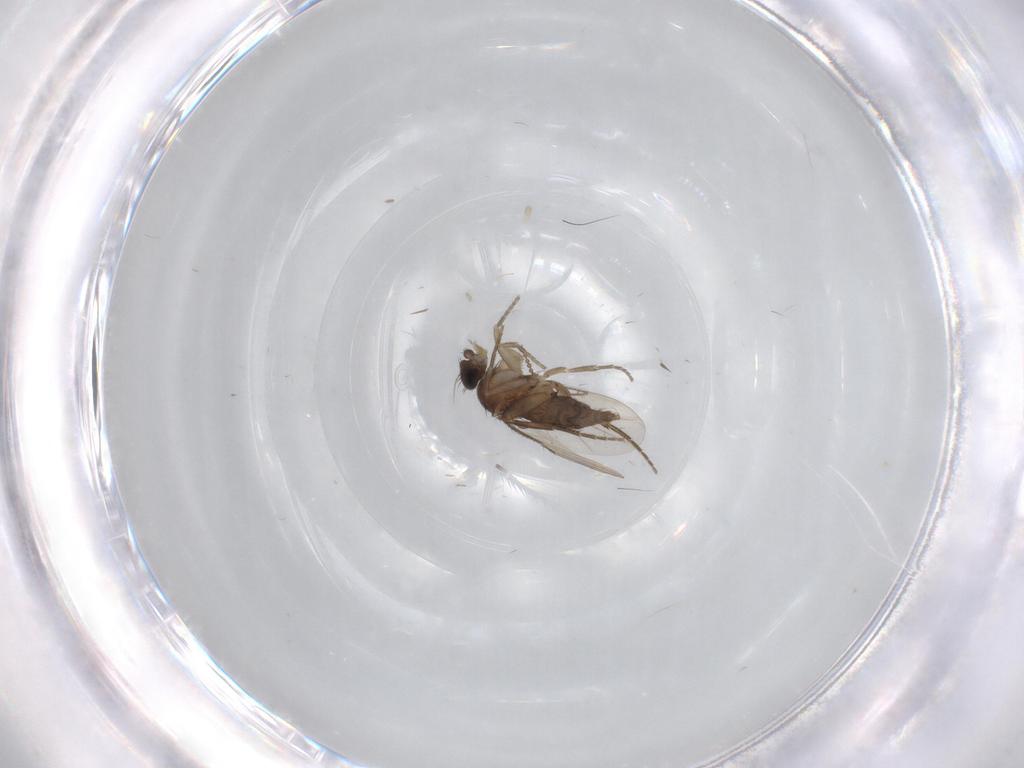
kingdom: Animalia
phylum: Arthropoda
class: Insecta
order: Diptera
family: Phoridae
